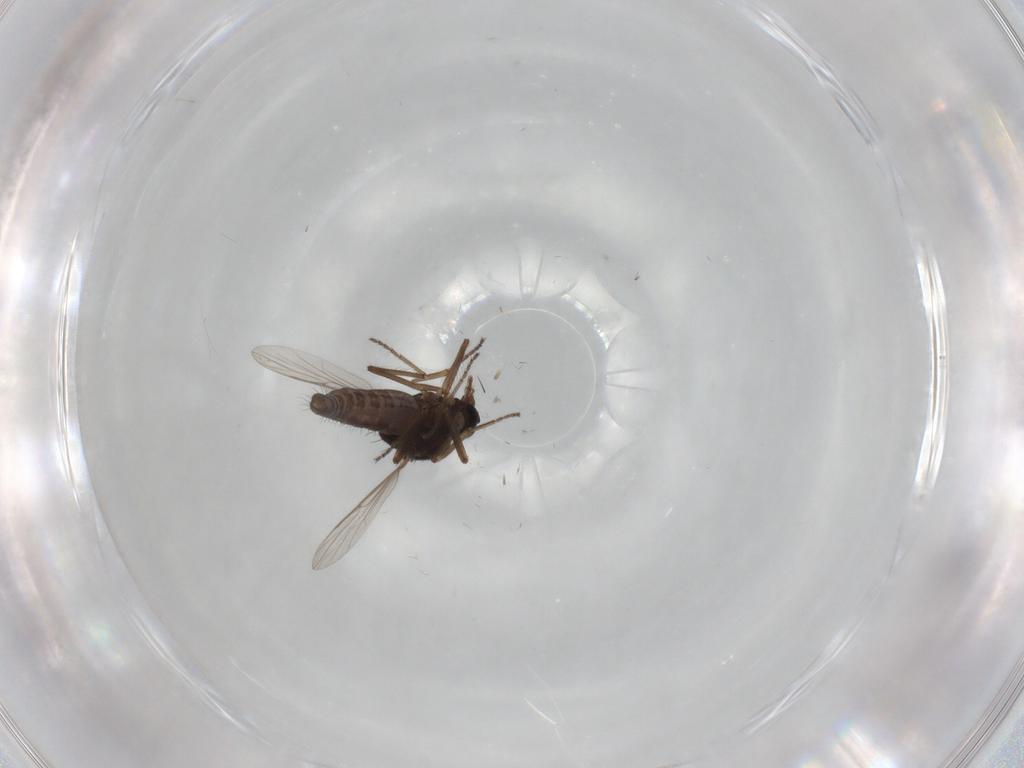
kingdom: Animalia
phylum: Arthropoda
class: Insecta
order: Diptera
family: Ceratopogonidae
